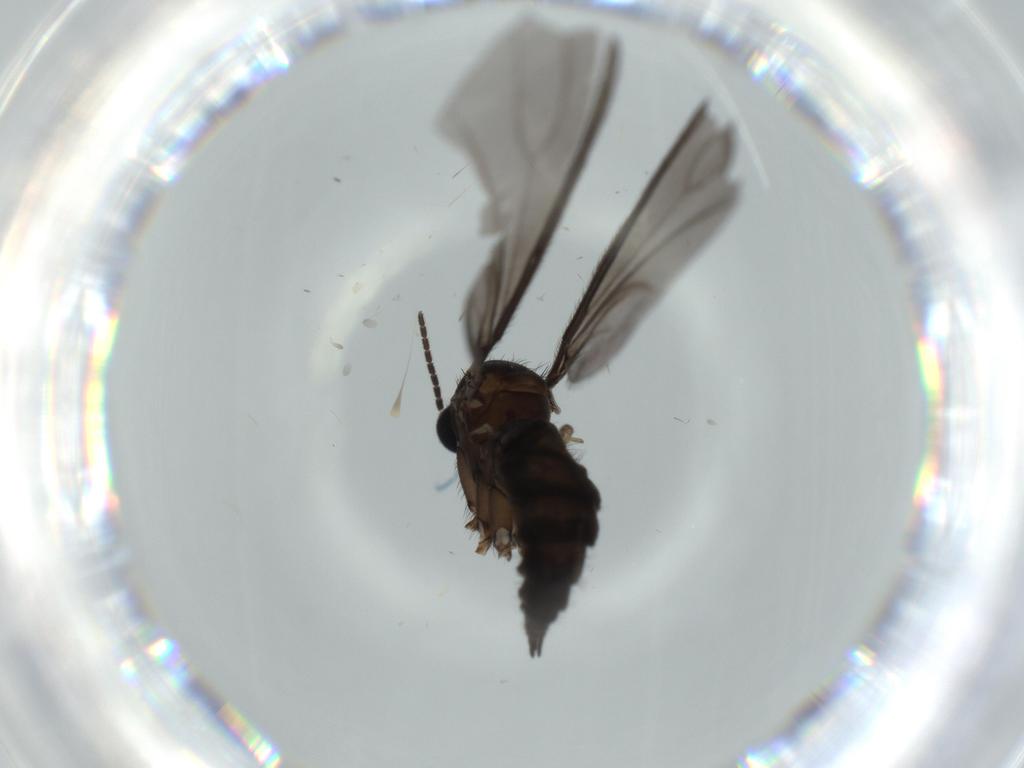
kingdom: Animalia
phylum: Arthropoda
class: Insecta
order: Diptera
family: Sciaridae
